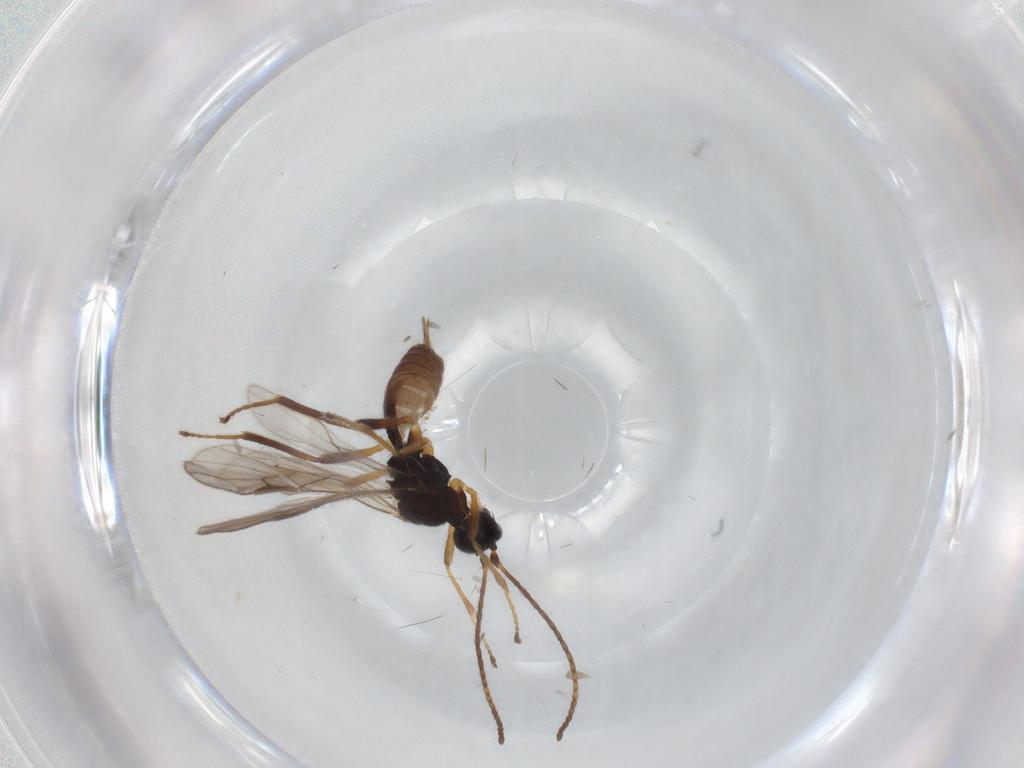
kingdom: Animalia
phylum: Arthropoda
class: Insecta
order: Hymenoptera
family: Braconidae
